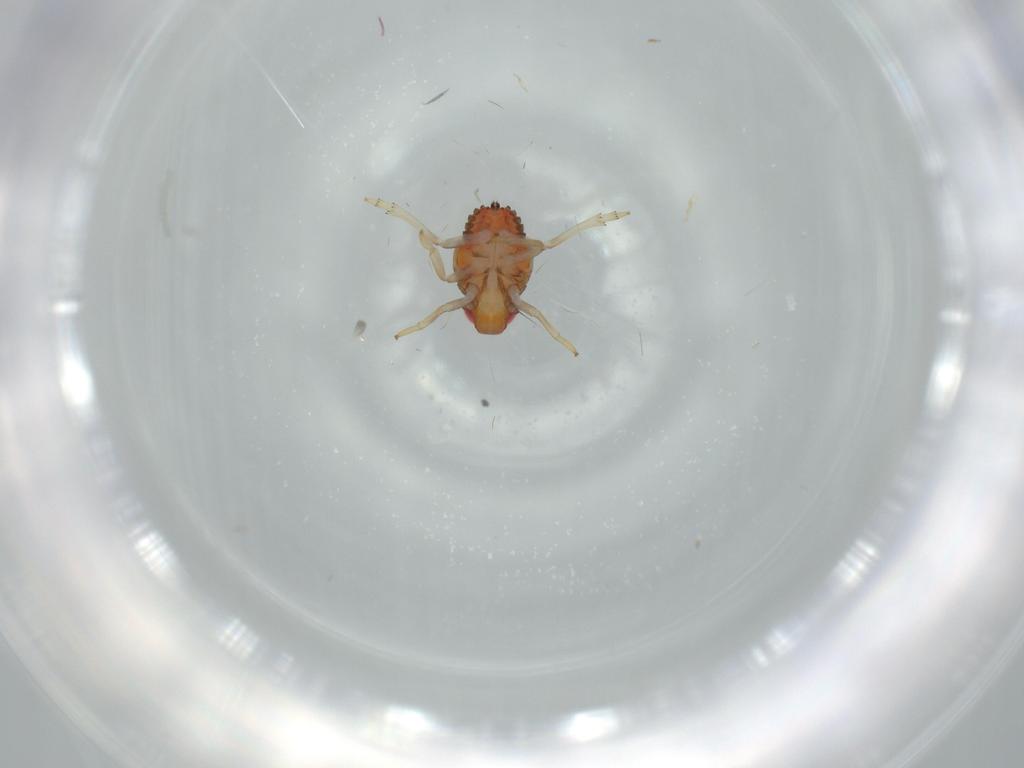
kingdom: Animalia
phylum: Arthropoda
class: Insecta
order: Hemiptera
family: Issidae
